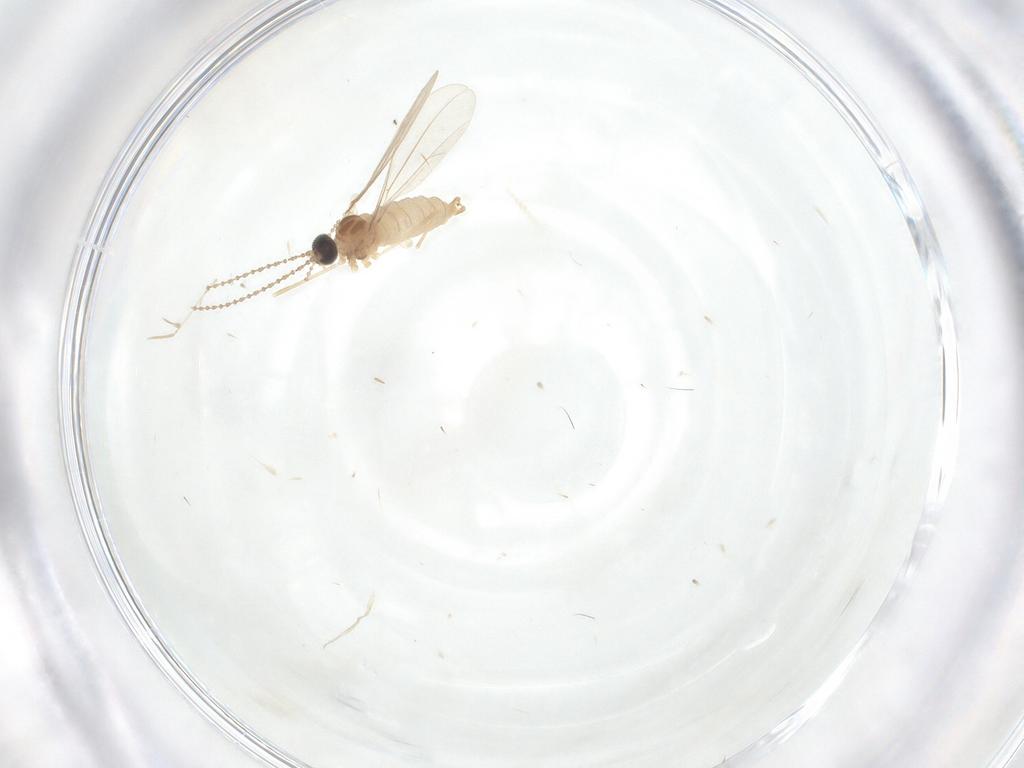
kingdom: Animalia
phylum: Arthropoda
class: Insecta
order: Diptera
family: Cecidomyiidae
